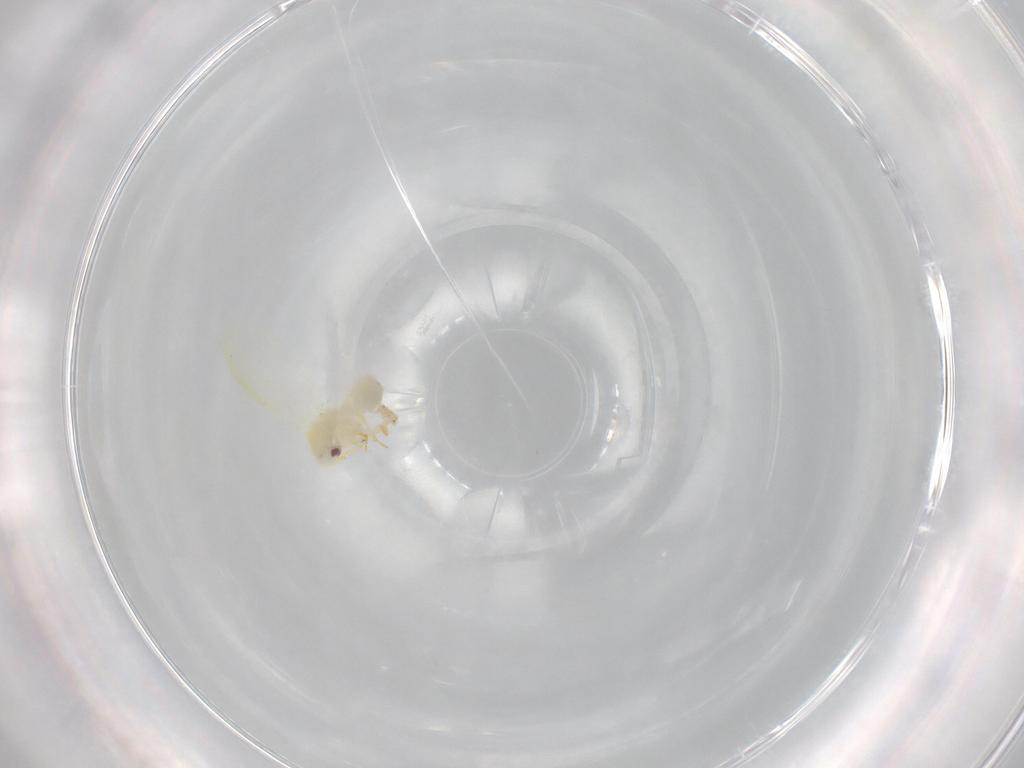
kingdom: Animalia
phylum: Arthropoda
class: Insecta
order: Hemiptera
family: Aleyrodidae
